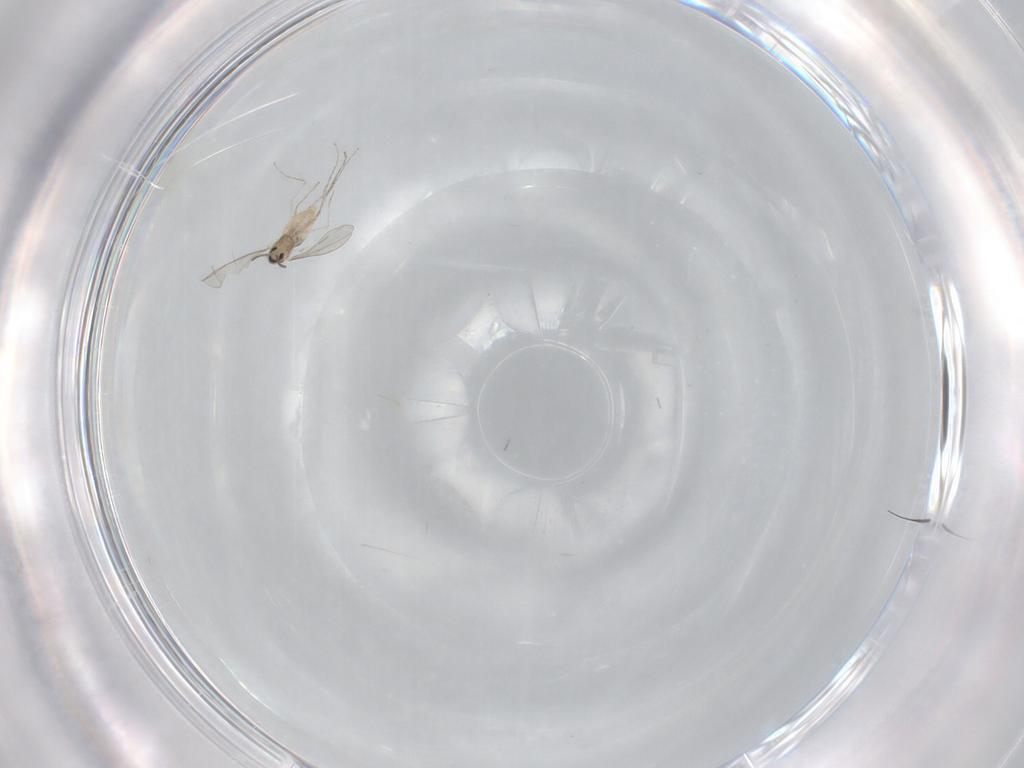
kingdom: Animalia
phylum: Arthropoda
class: Insecta
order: Diptera
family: Cecidomyiidae
